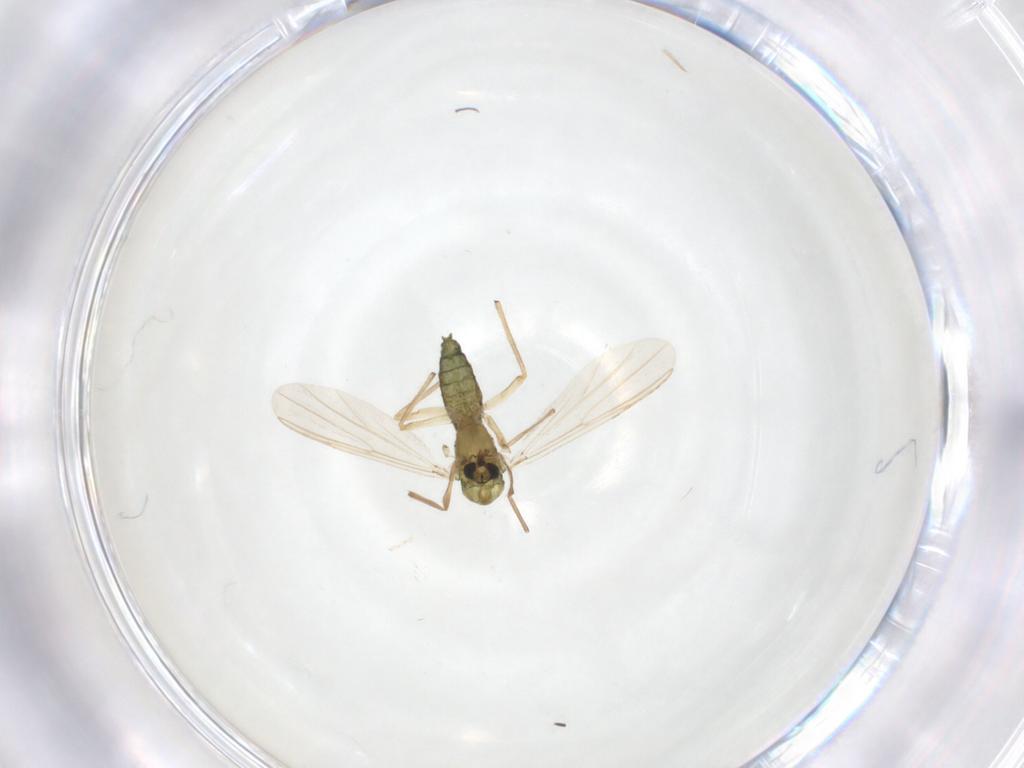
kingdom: Animalia
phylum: Arthropoda
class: Insecta
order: Diptera
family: Chironomidae
